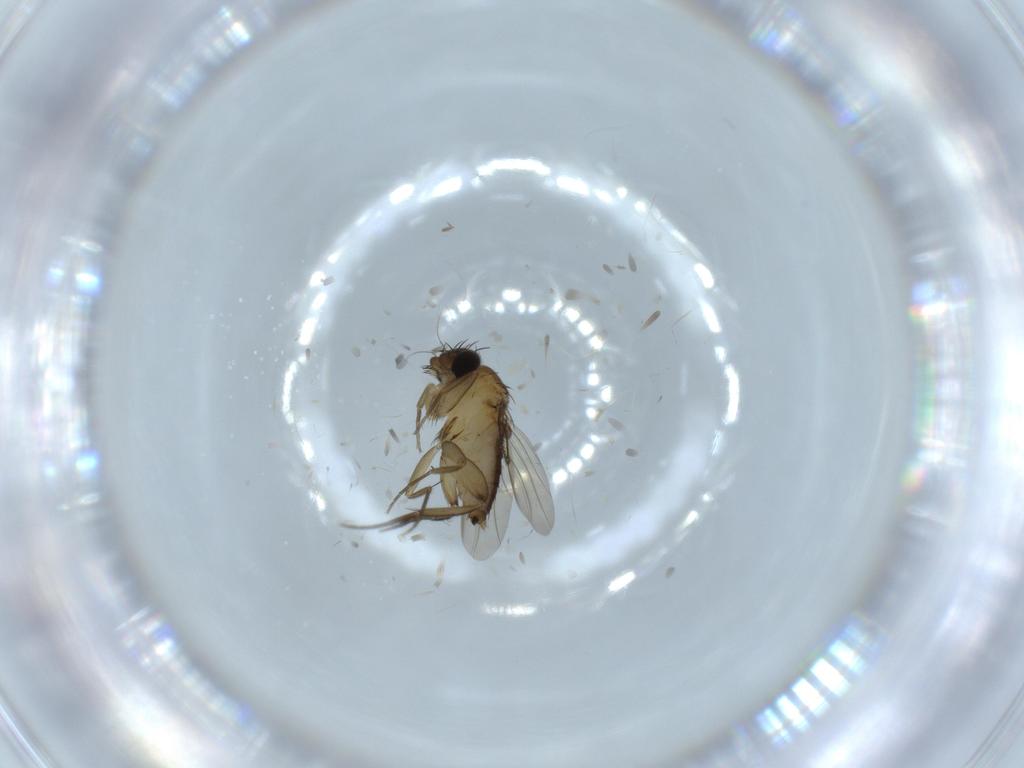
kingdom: Animalia
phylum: Arthropoda
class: Insecta
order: Diptera
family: Phoridae
